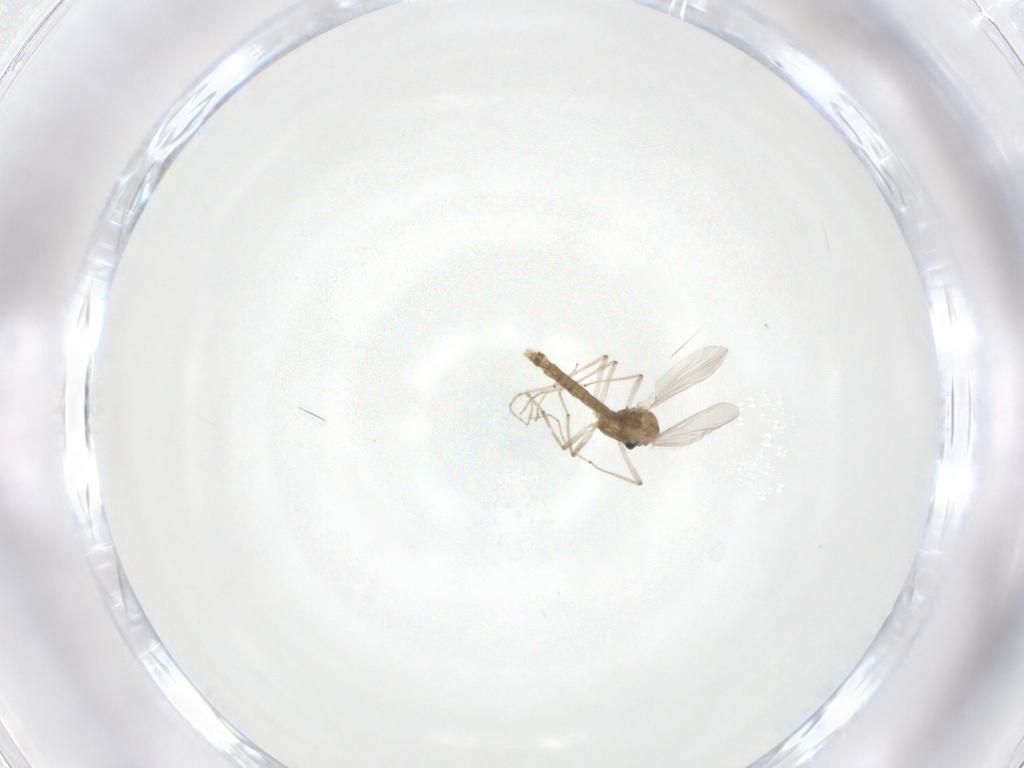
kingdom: Animalia
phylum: Arthropoda
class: Insecta
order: Diptera
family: Chironomidae
